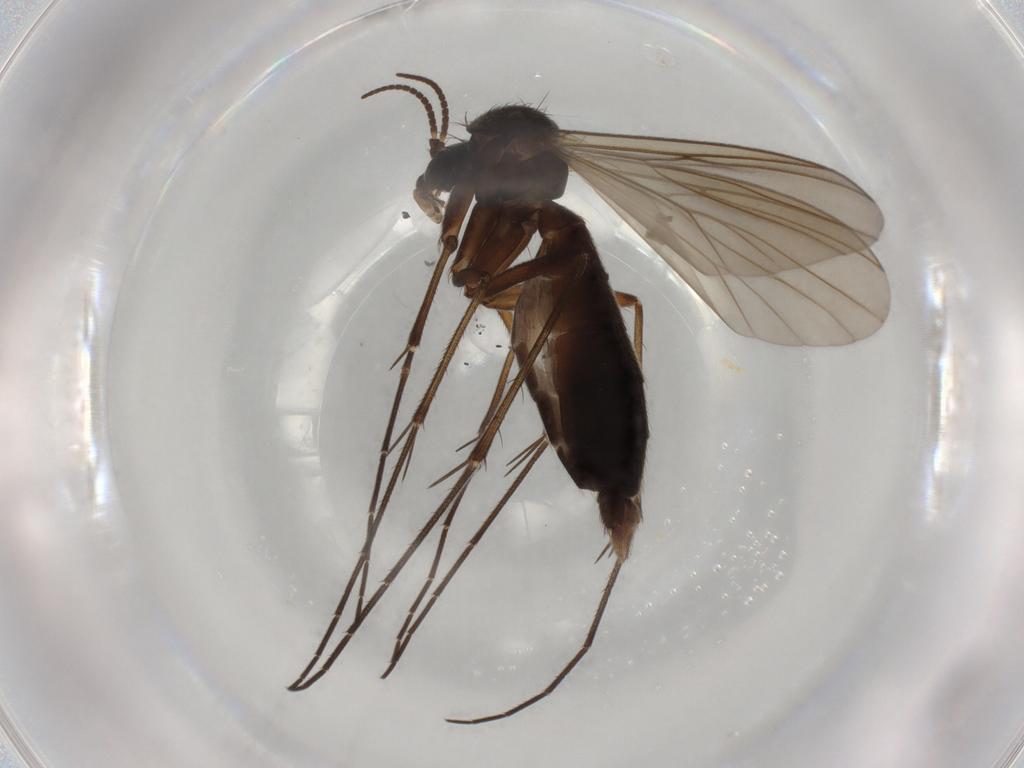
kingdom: Animalia
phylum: Arthropoda
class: Insecta
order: Diptera
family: Mycetophilidae
